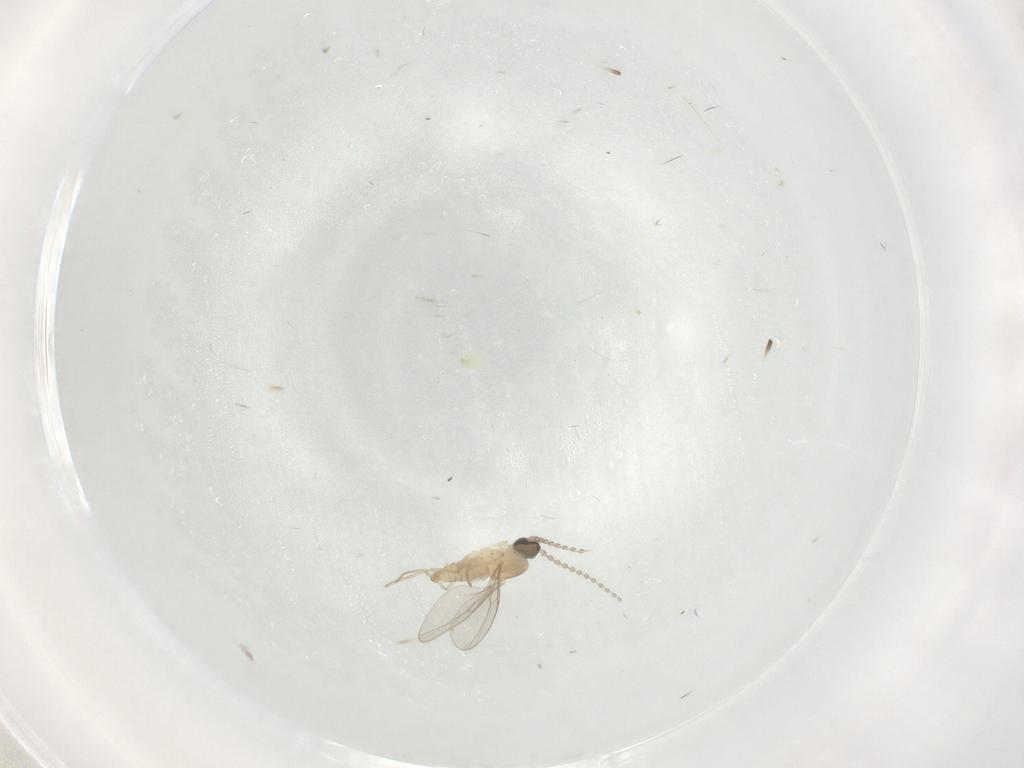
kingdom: Animalia
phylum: Arthropoda
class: Insecta
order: Diptera
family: Cecidomyiidae
